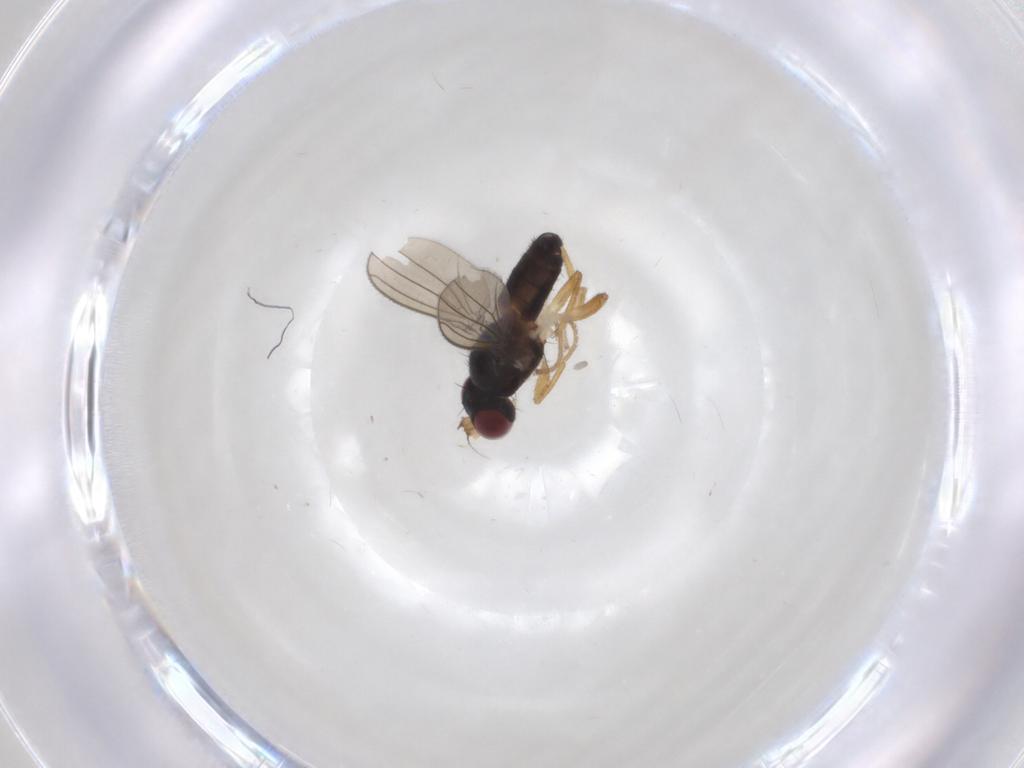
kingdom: Animalia
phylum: Arthropoda
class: Insecta
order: Diptera
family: Anthomyzidae
